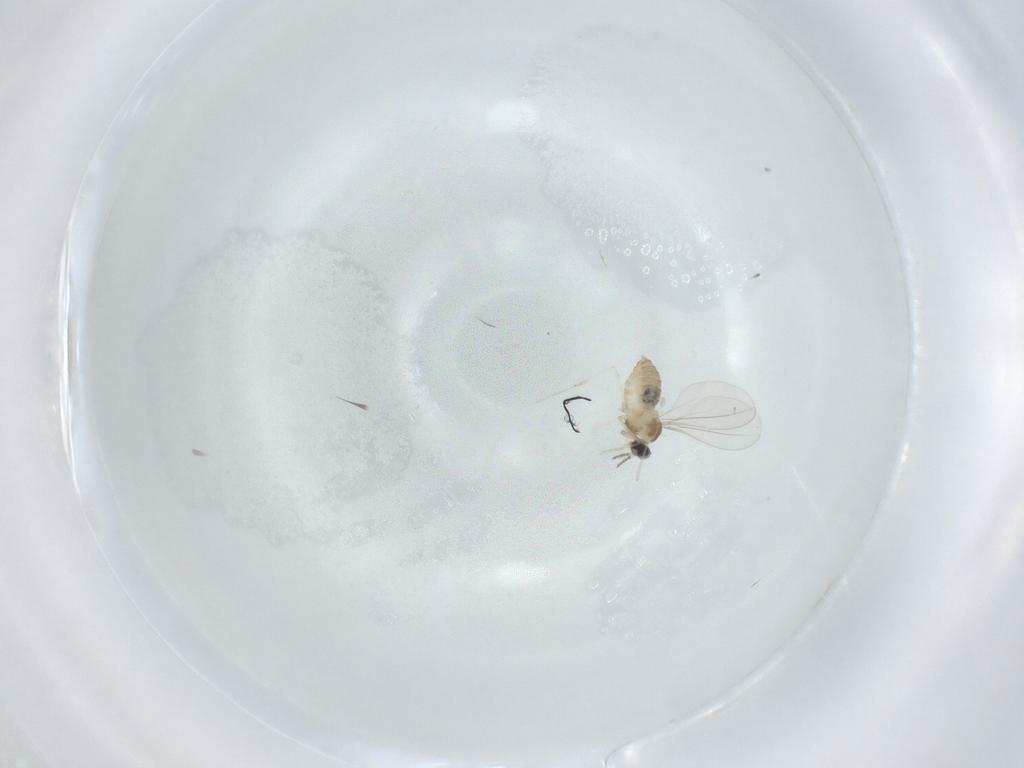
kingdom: Animalia
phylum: Arthropoda
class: Insecta
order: Diptera
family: Cecidomyiidae
